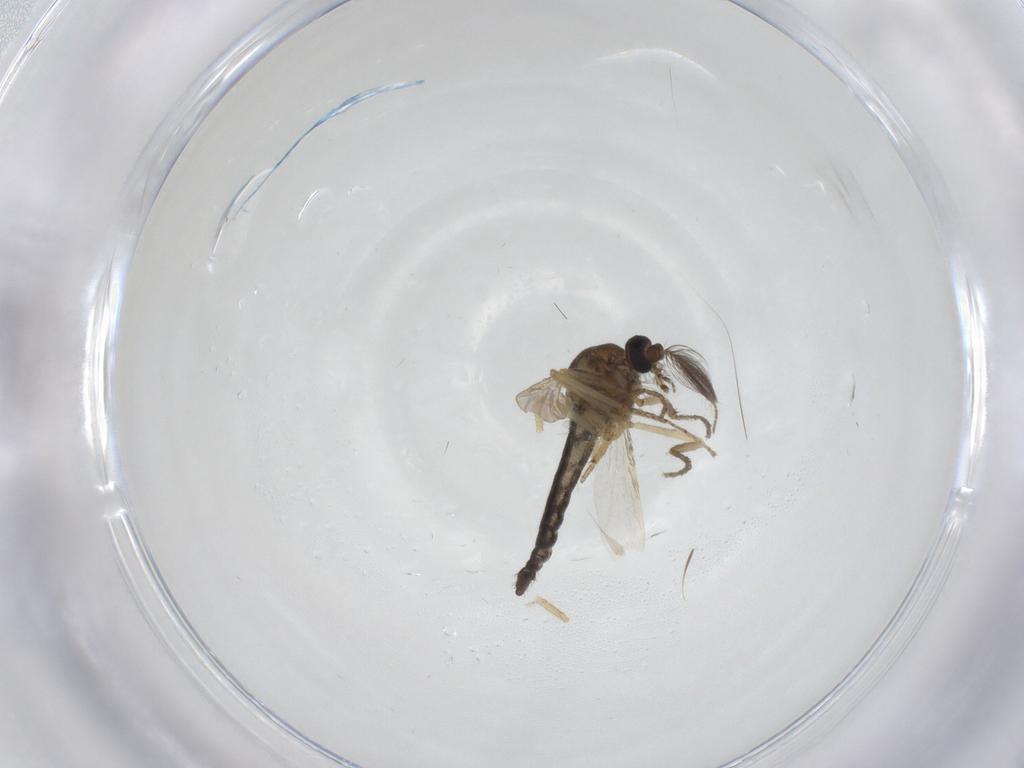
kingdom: Animalia
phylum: Arthropoda
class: Insecta
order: Diptera
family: Ceratopogonidae
